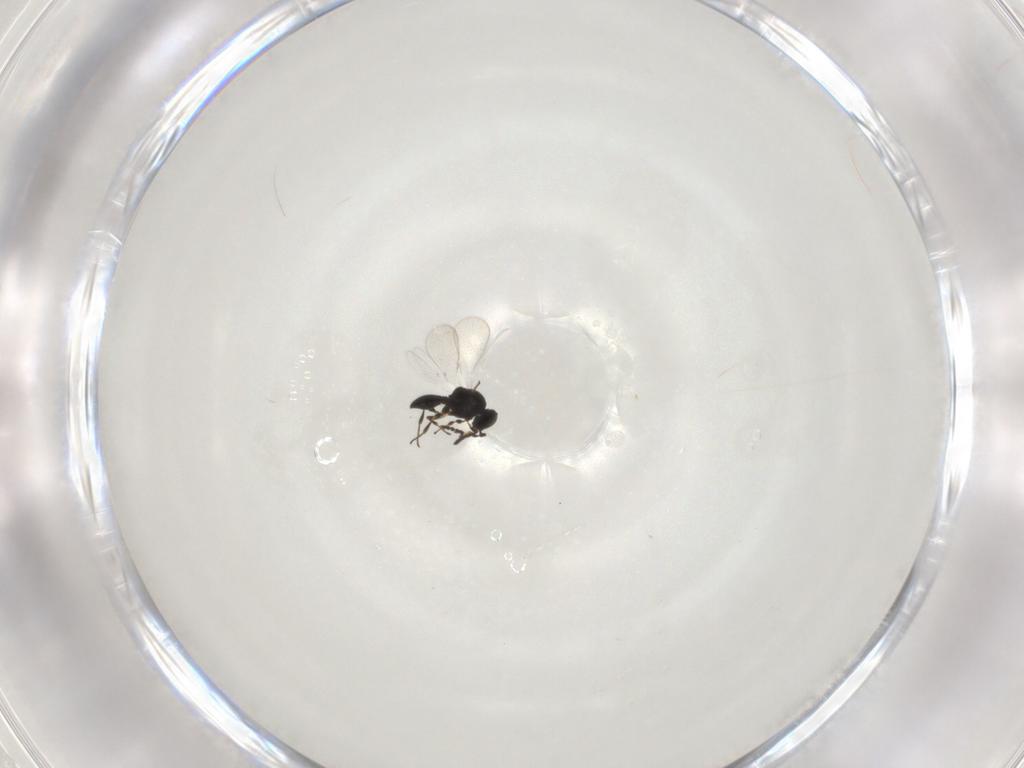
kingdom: Animalia
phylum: Arthropoda
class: Insecta
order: Hymenoptera
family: Platygastridae
